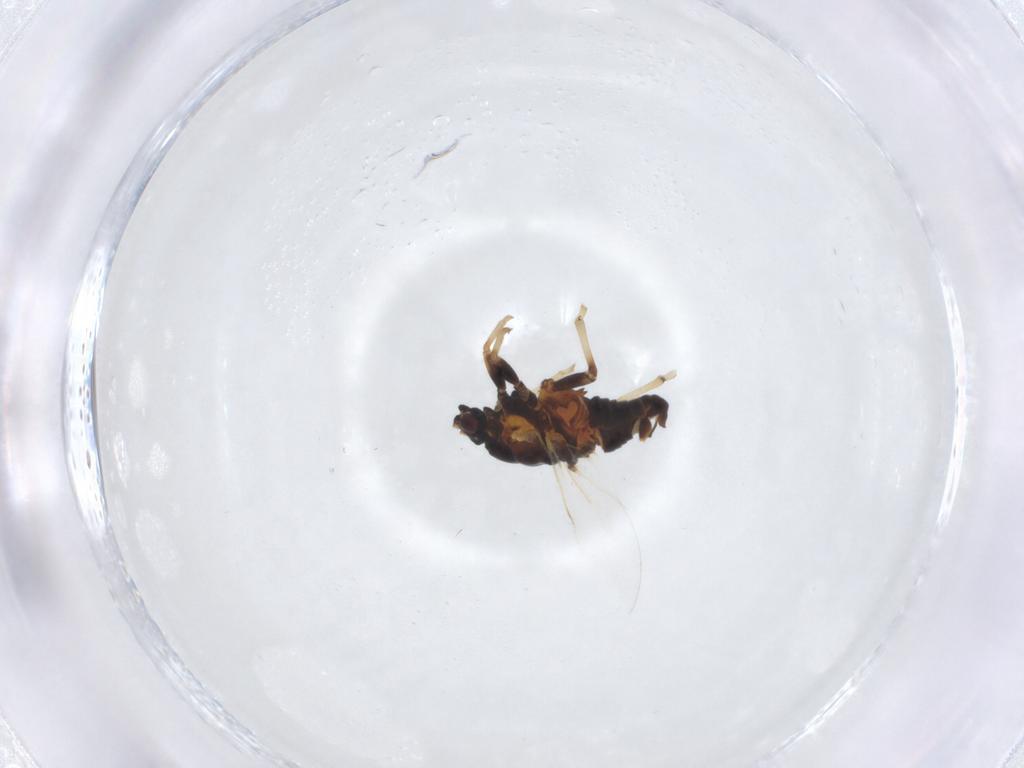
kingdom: Animalia
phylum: Arthropoda
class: Insecta
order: Hemiptera
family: Triozidae
